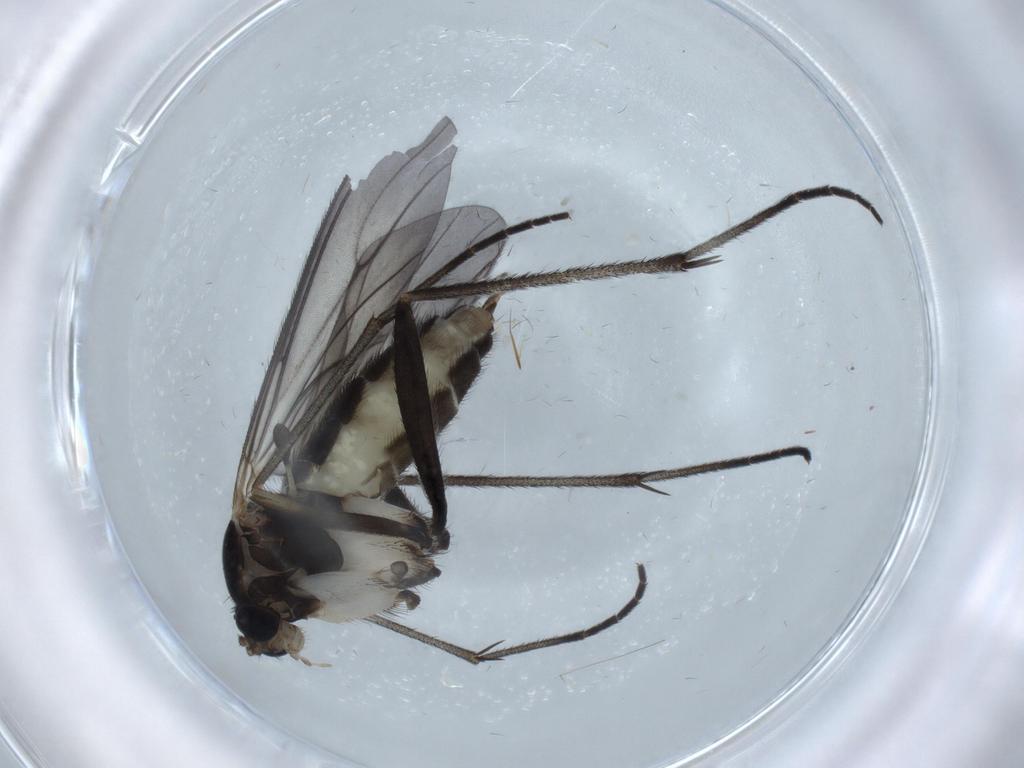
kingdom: Animalia
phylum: Arthropoda
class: Insecta
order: Diptera
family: Sciaridae
